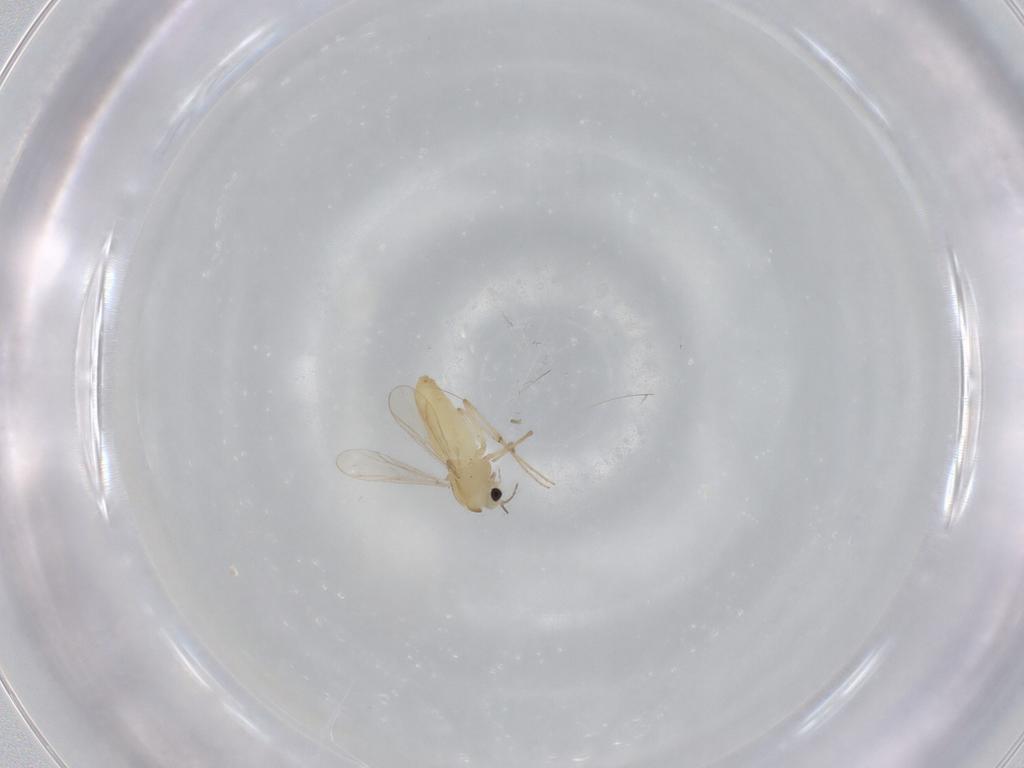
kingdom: Animalia
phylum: Arthropoda
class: Insecta
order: Diptera
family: Chironomidae
